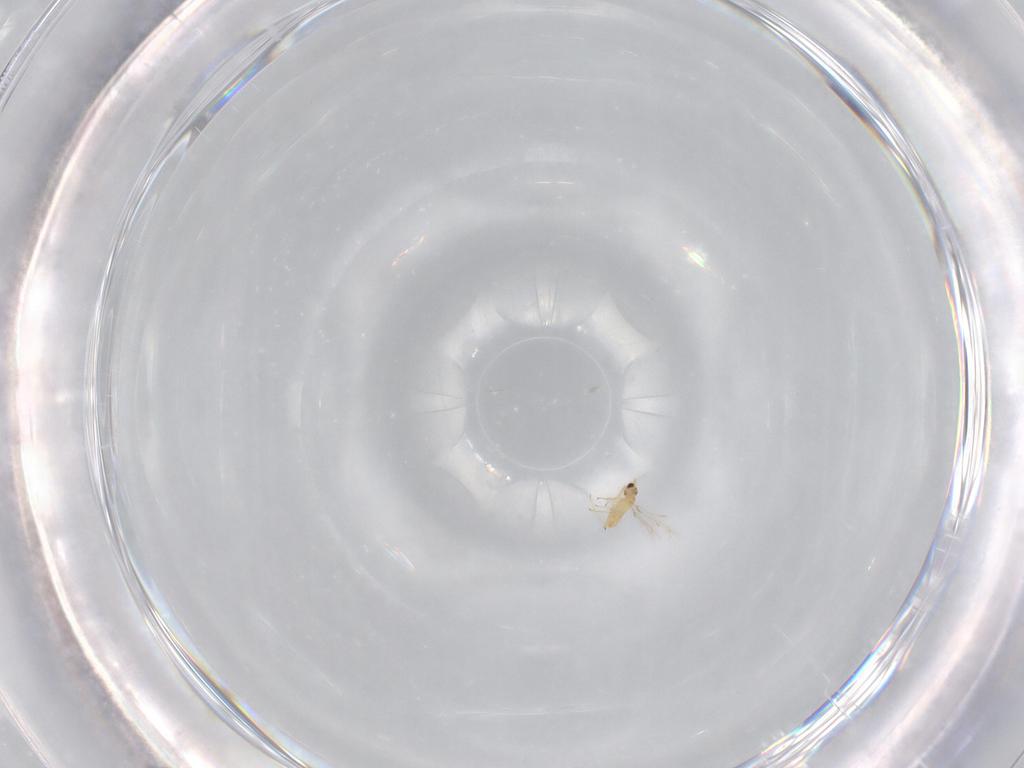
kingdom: Animalia
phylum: Arthropoda
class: Insecta
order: Hymenoptera
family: Mymaridae
